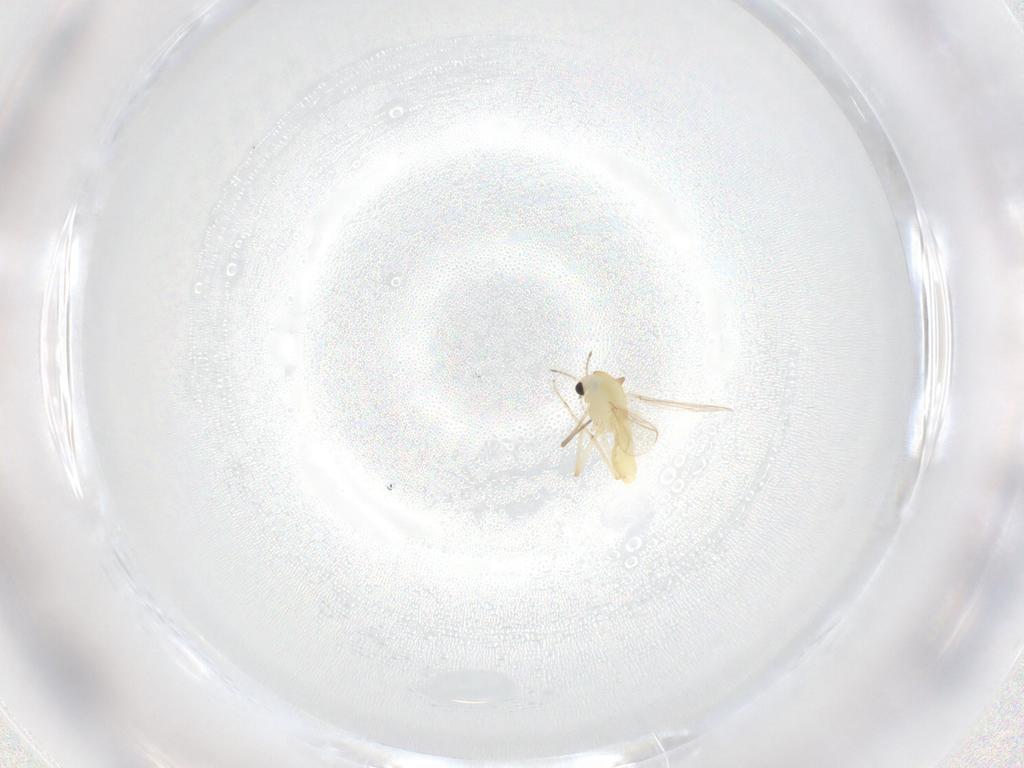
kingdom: Animalia
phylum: Arthropoda
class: Insecta
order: Diptera
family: Chironomidae
